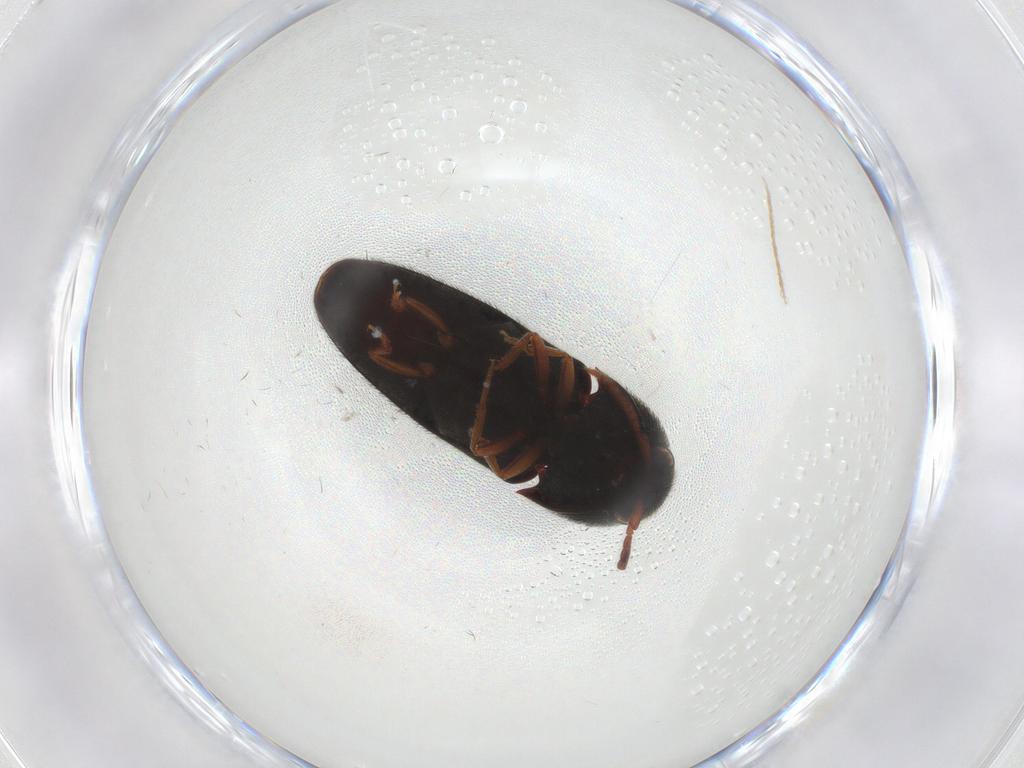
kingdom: Animalia
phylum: Arthropoda
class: Insecta
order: Coleoptera
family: Eucnemidae
